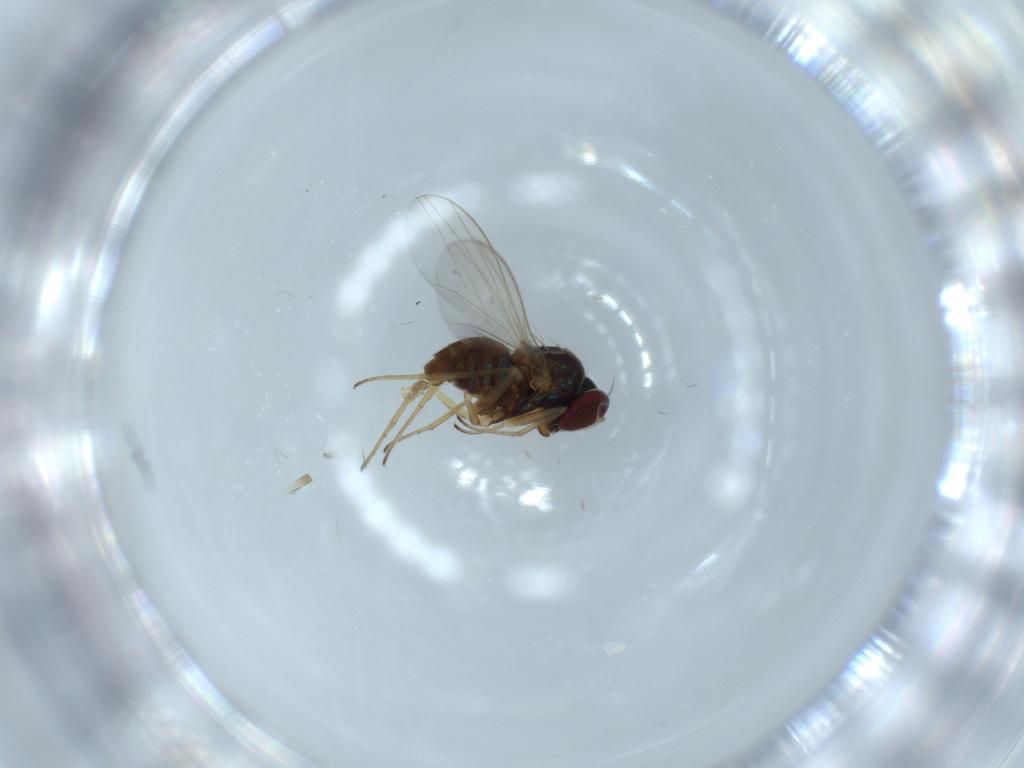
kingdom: Animalia
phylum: Arthropoda
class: Insecta
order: Diptera
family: Dolichopodidae
